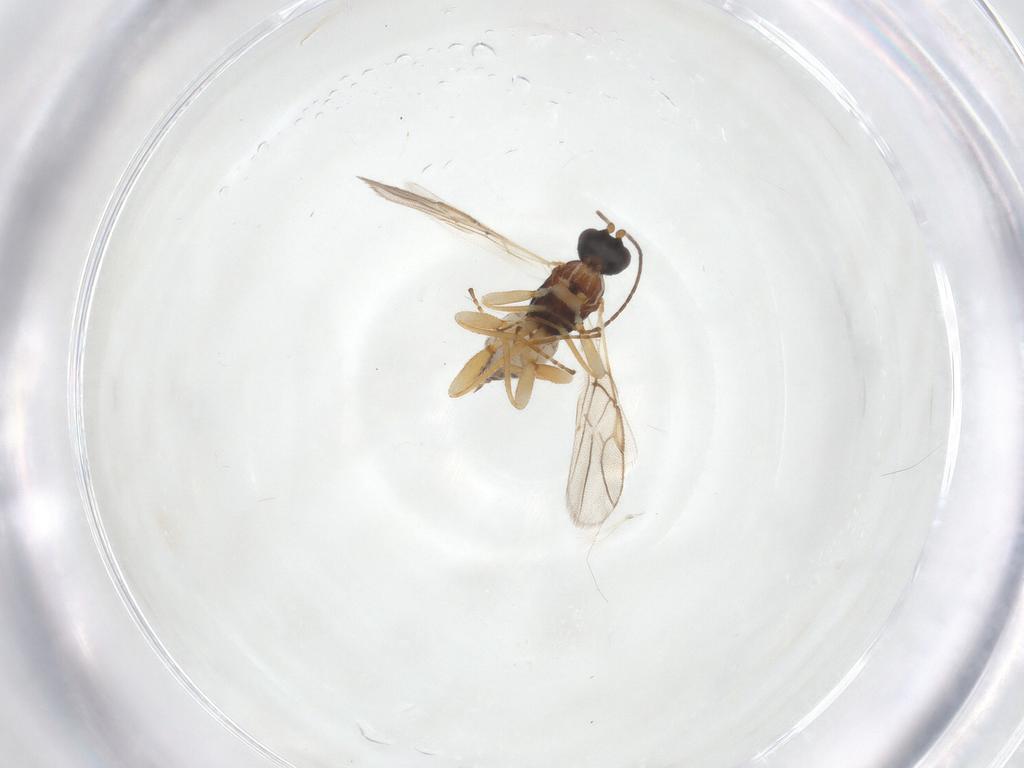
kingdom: Animalia
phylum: Arthropoda
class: Insecta
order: Hymenoptera
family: Braconidae
